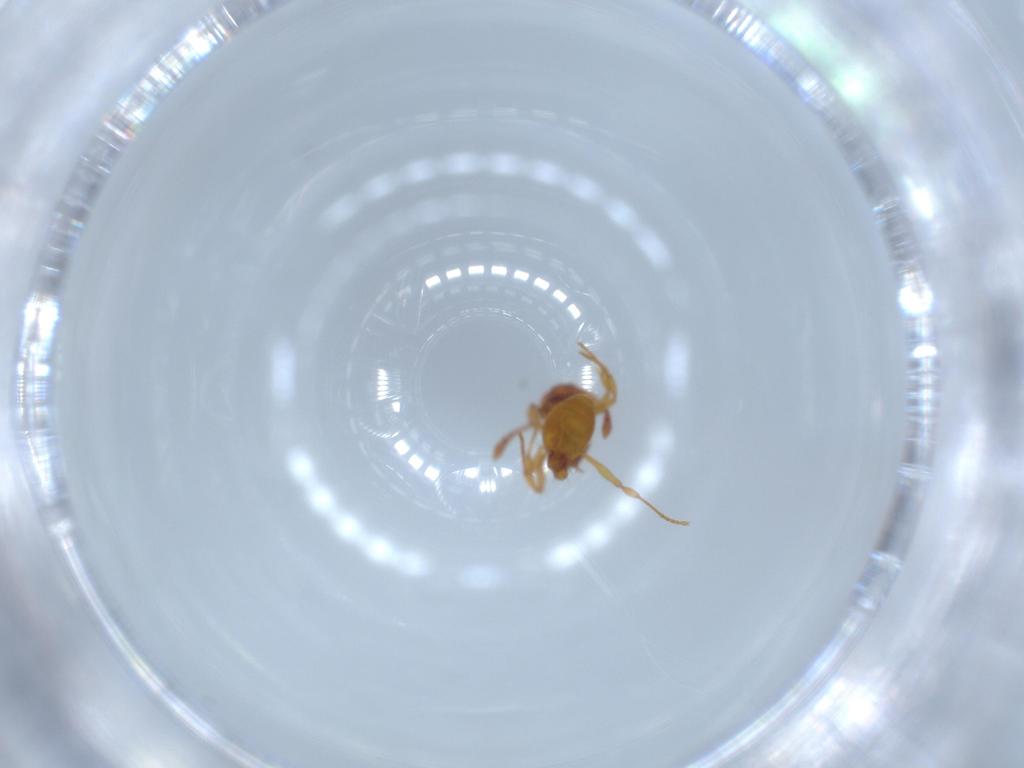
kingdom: Animalia
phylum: Arthropoda
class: Insecta
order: Hymenoptera
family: Formicidae
